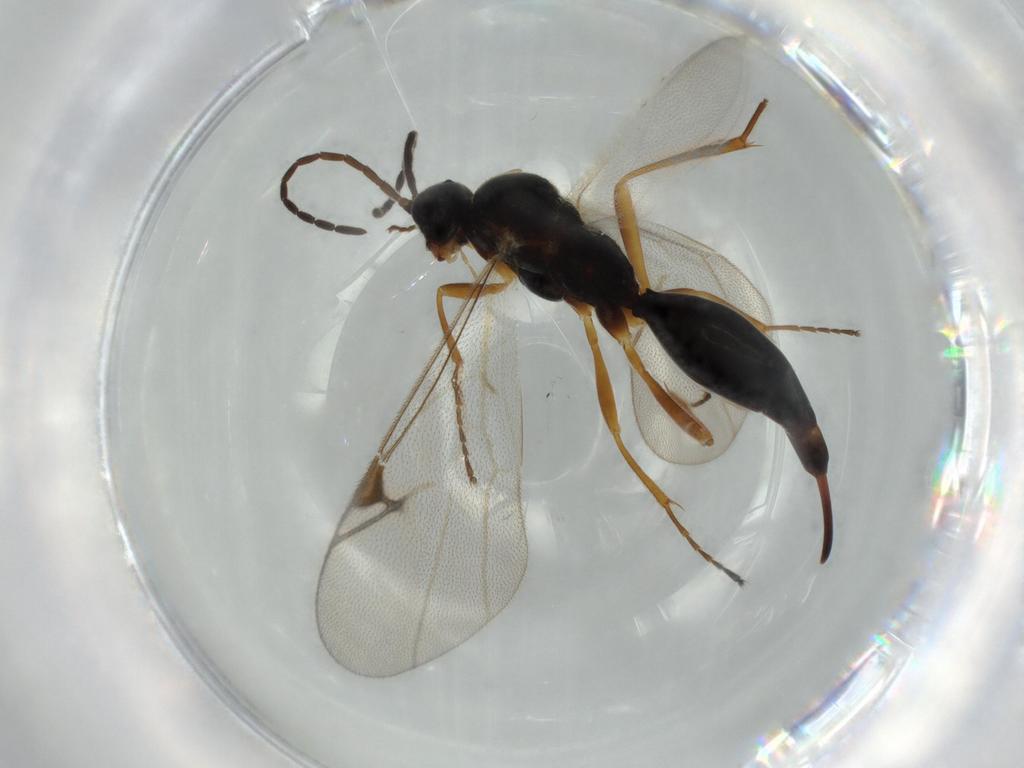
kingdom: Animalia
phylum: Arthropoda
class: Insecta
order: Hymenoptera
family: Proctotrupidae
